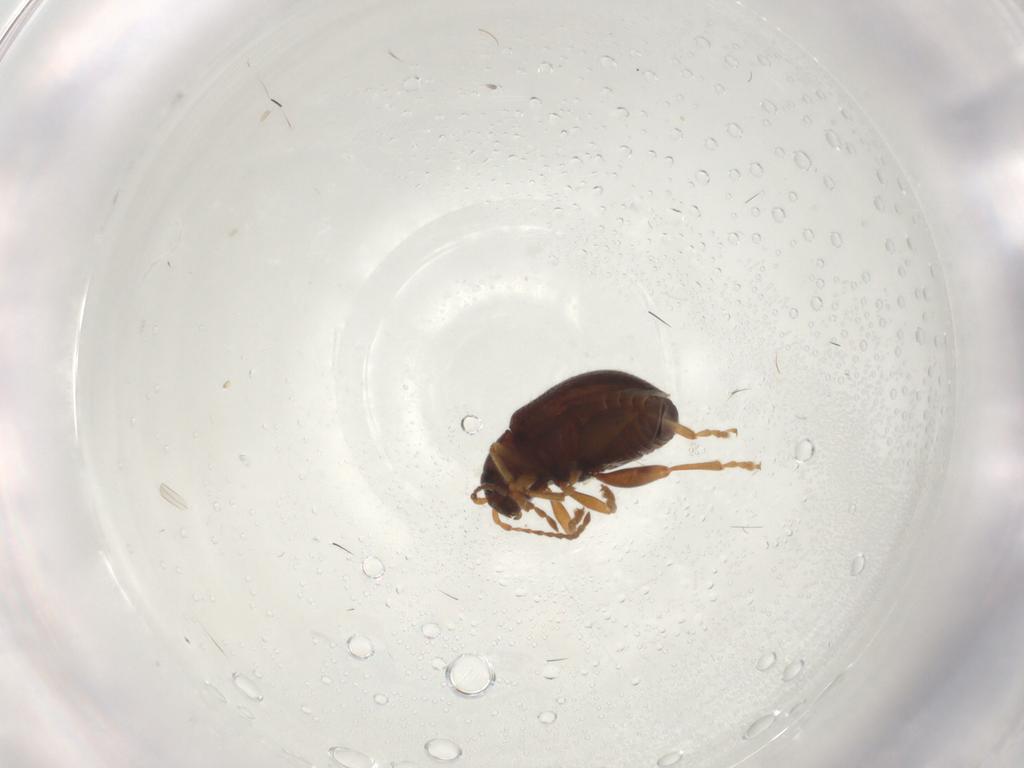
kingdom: Animalia
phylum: Arthropoda
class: Insecta
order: Coleoptera
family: Chrysomelidae
